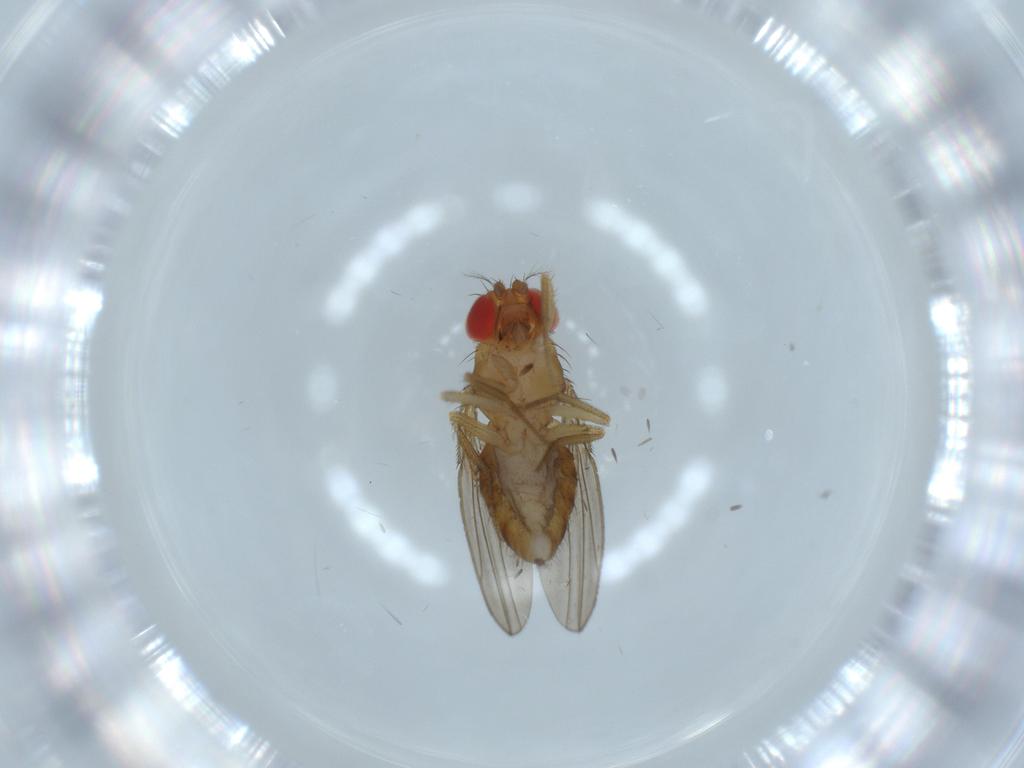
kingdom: Animalia
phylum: Arthropoda
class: Insecta
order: Diptera
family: Drosophilidae
